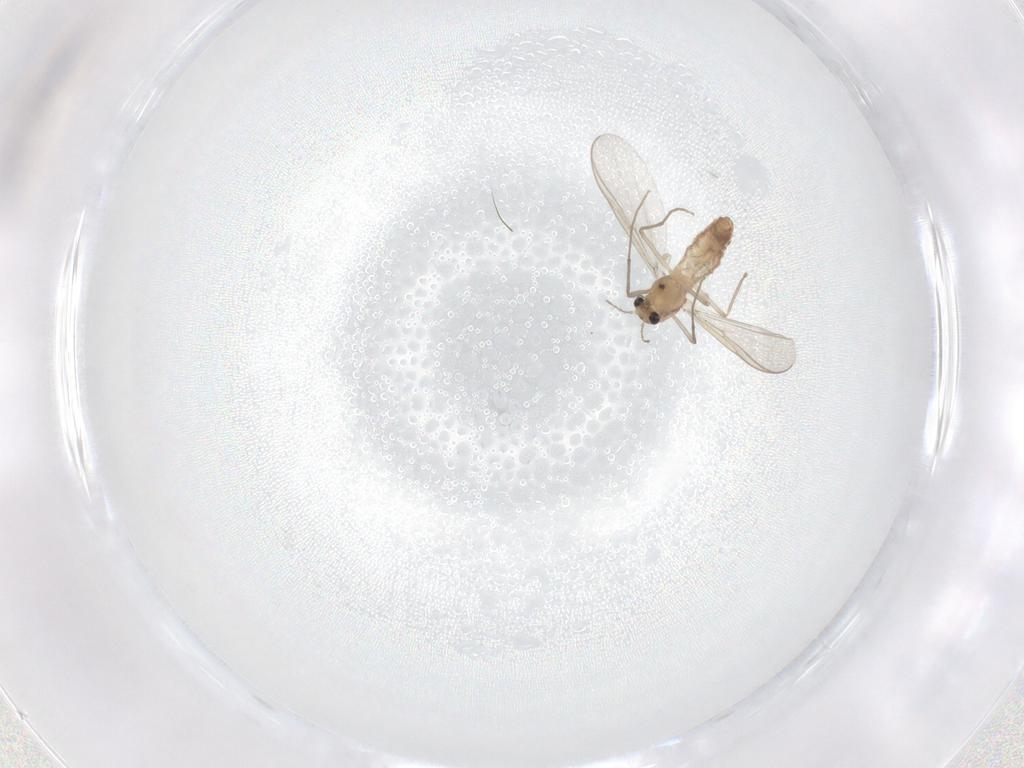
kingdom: Animalia
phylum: Arthropoda
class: Insecta
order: Diptera
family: Chironomidae
